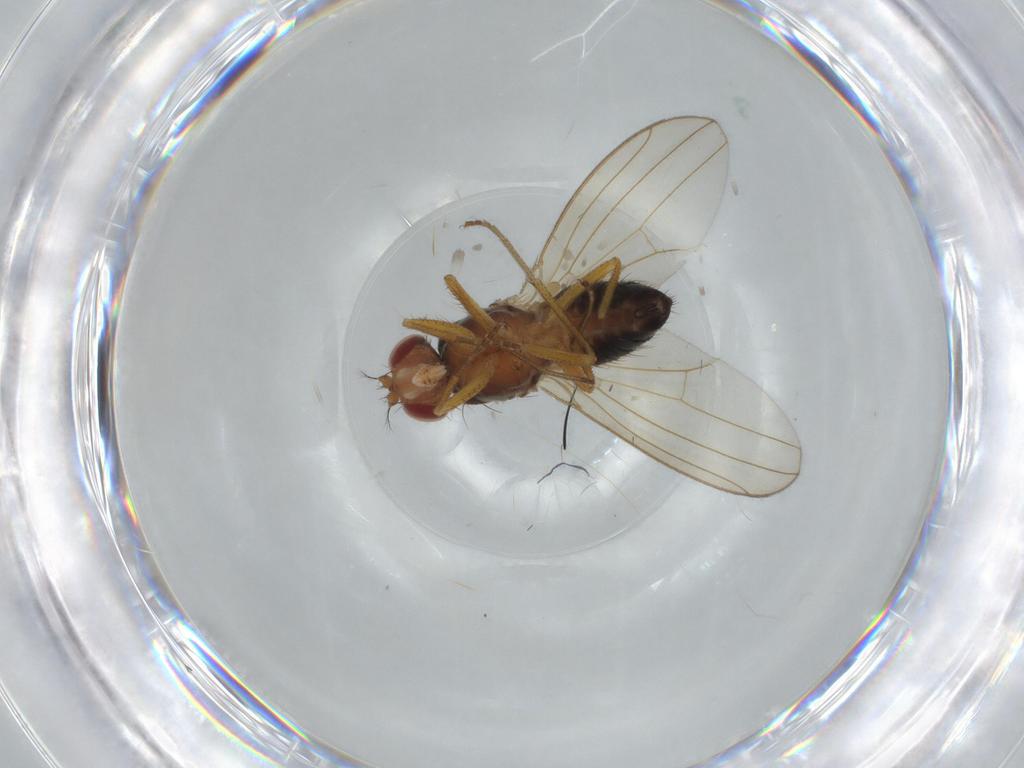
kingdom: Animalia
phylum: Arthropoda
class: Insecta
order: Diptera
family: Drosophilidae
